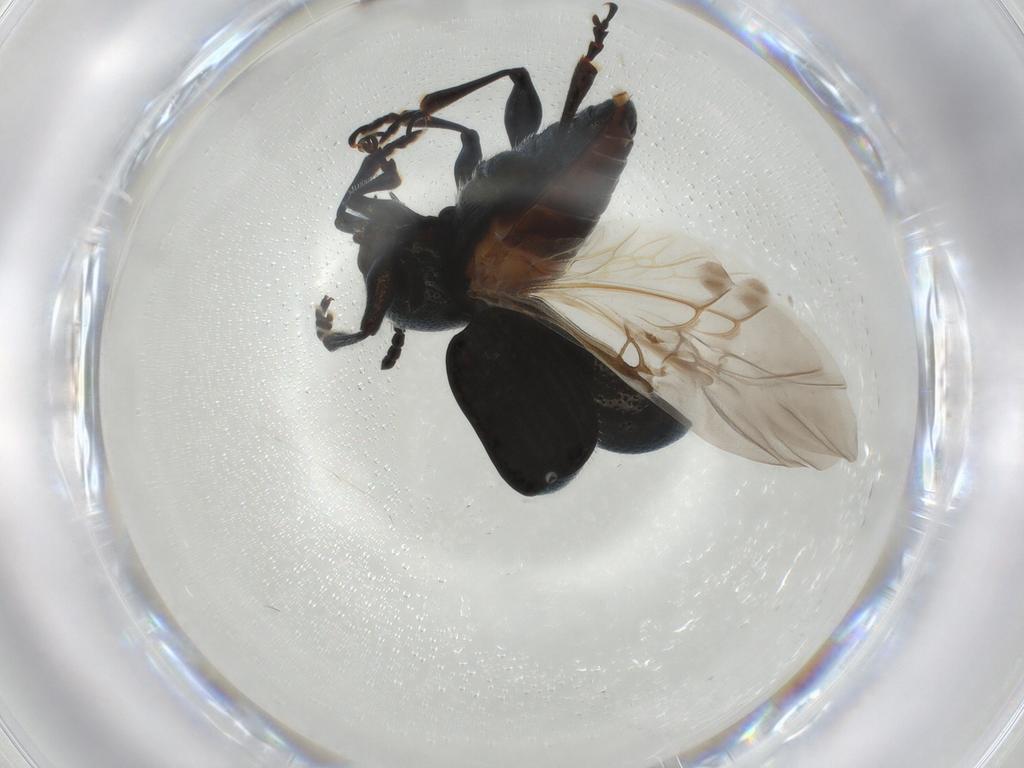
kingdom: Animalia
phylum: Arthropoda
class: Insecta
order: Coleoptera
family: Chrysomelidae
